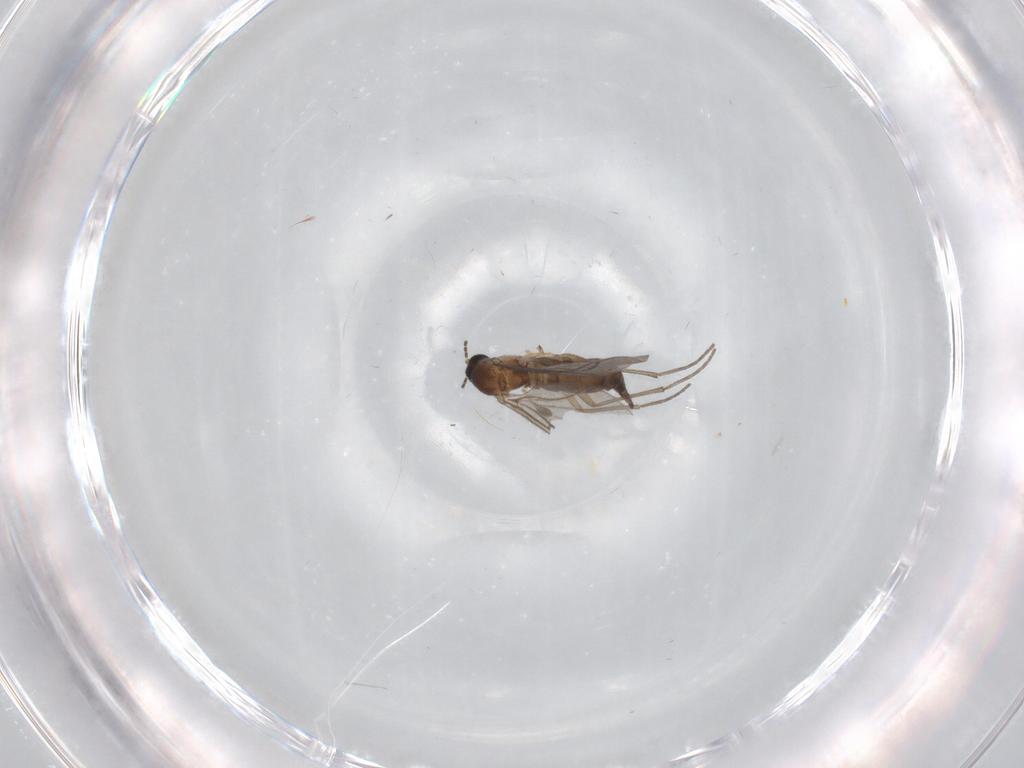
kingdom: Animalia
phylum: Arthropoda
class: Insecta
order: Diptera
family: Sciaridae
